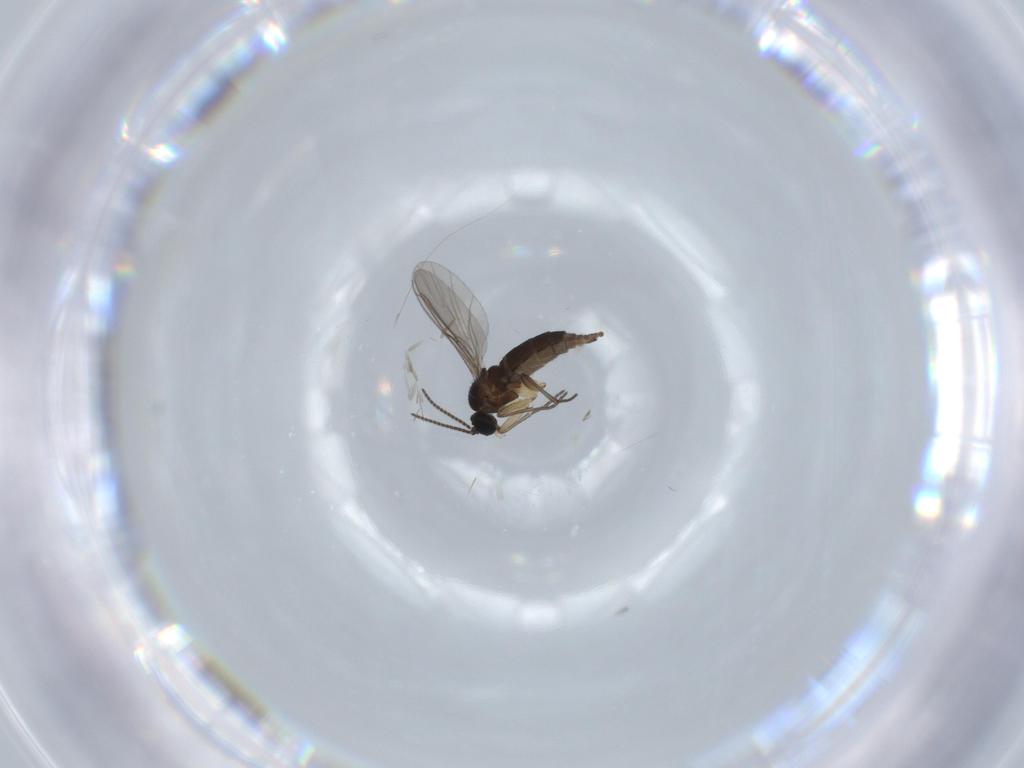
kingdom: Animalia
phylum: Arthropoda
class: Insecta
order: Diptera
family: Sciaridae
